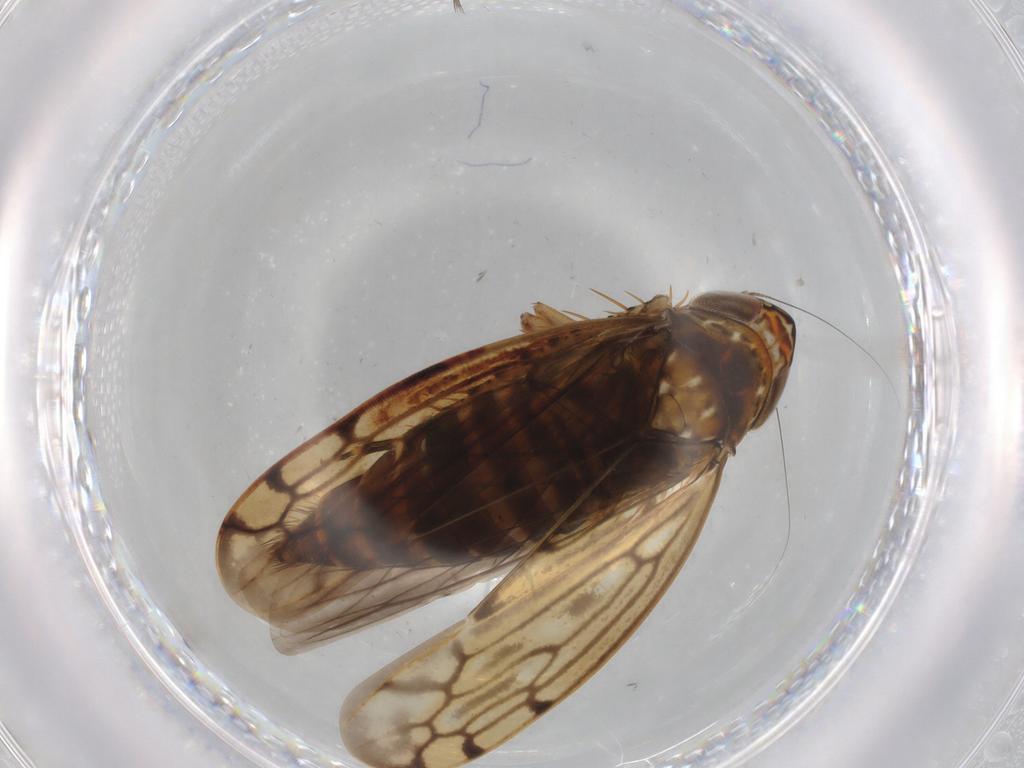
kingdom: Animalia
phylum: Arthropoda
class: Insecta
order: Hemiptera
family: Cicadellidae
